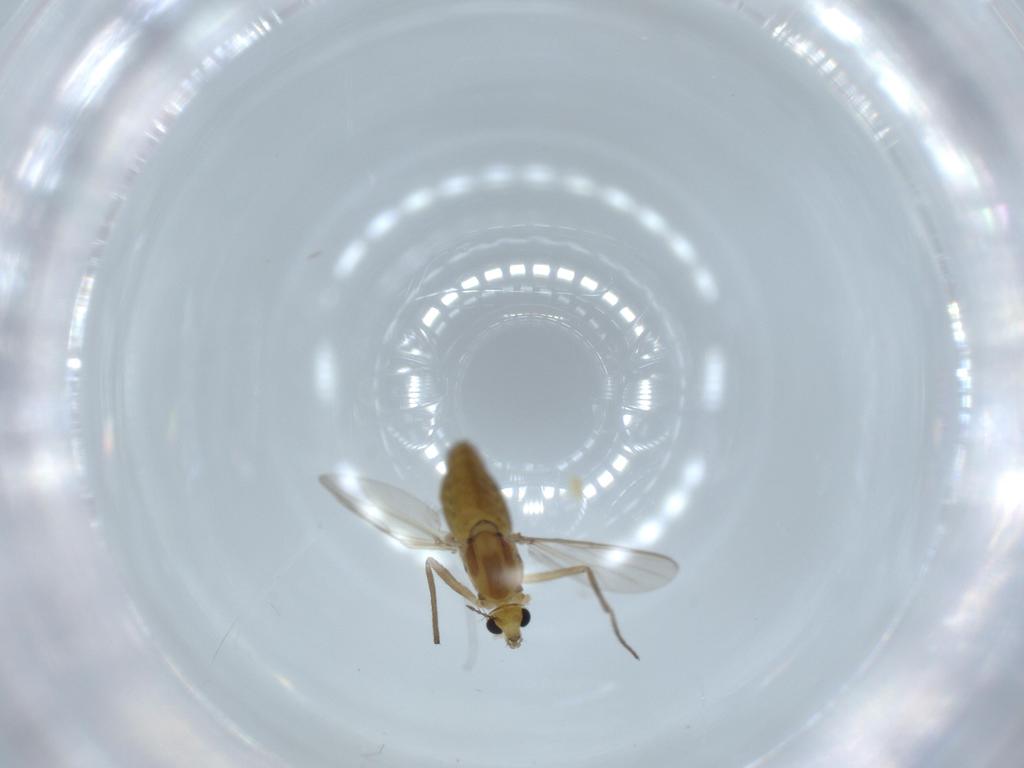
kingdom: Animalia
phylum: Arthropoda
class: Insecta
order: Diptera
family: Chironomidae
